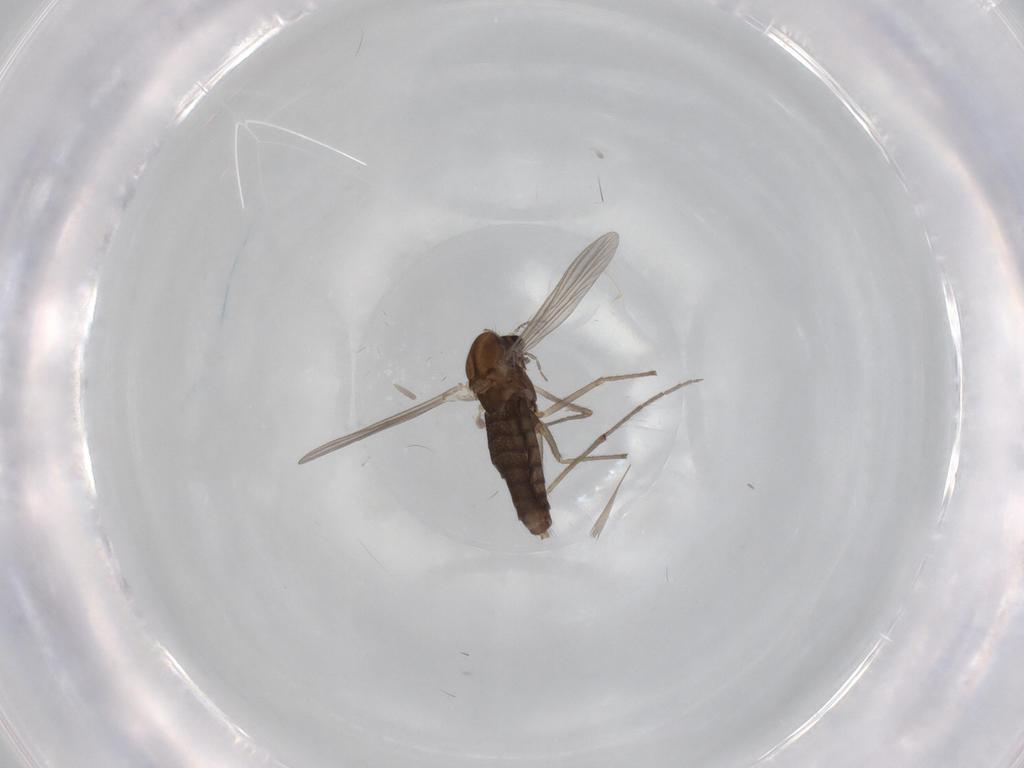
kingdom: Animalia
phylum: Arthropoda
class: Insecta
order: Diptera
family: Chironomidae
